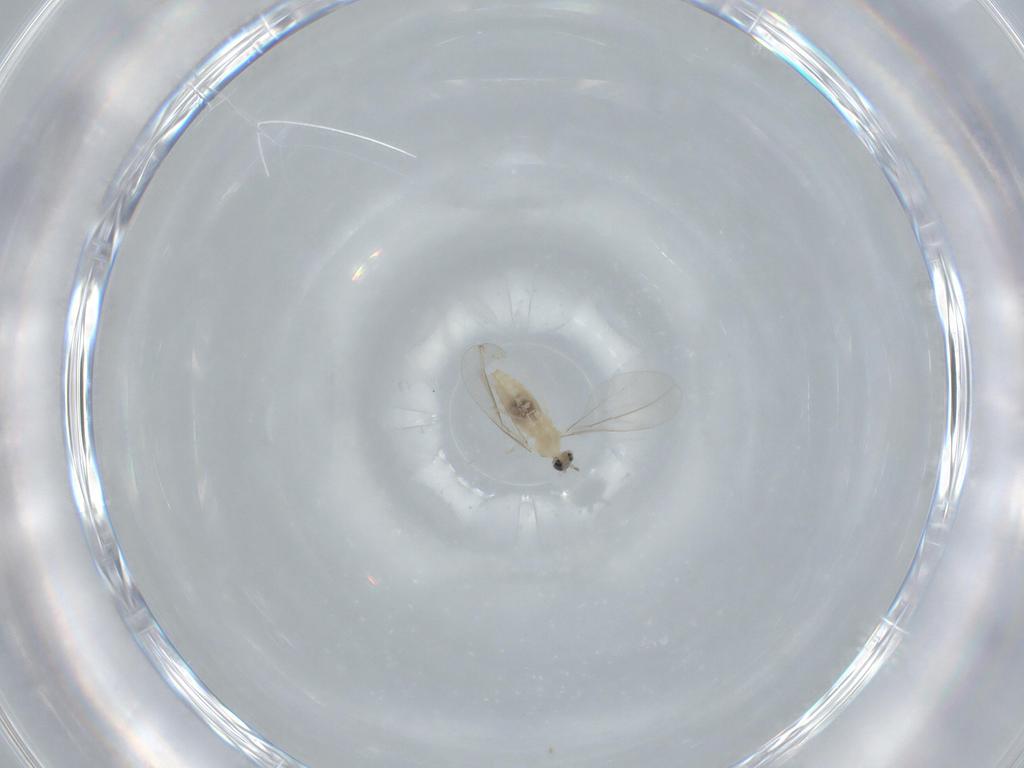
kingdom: Animalia
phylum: Arthropoda
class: Insecta
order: Diptera
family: Cecidomyiidae
